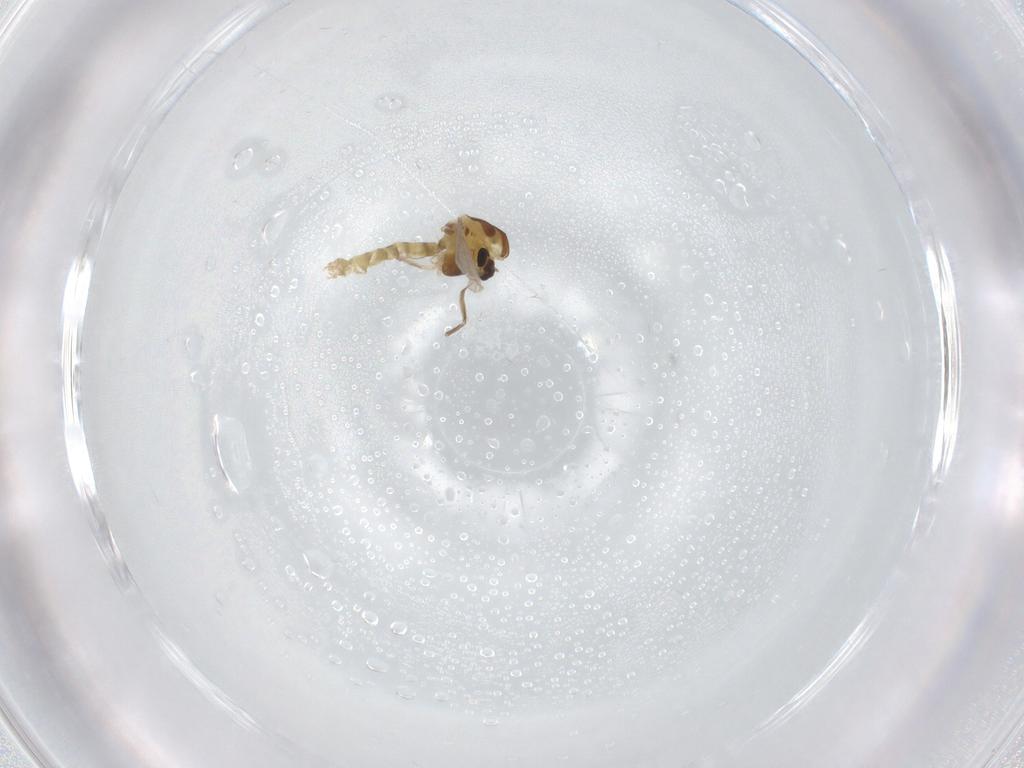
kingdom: Animalia
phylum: Arthropoda
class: Insecta
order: Diptera
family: Chironomidae
